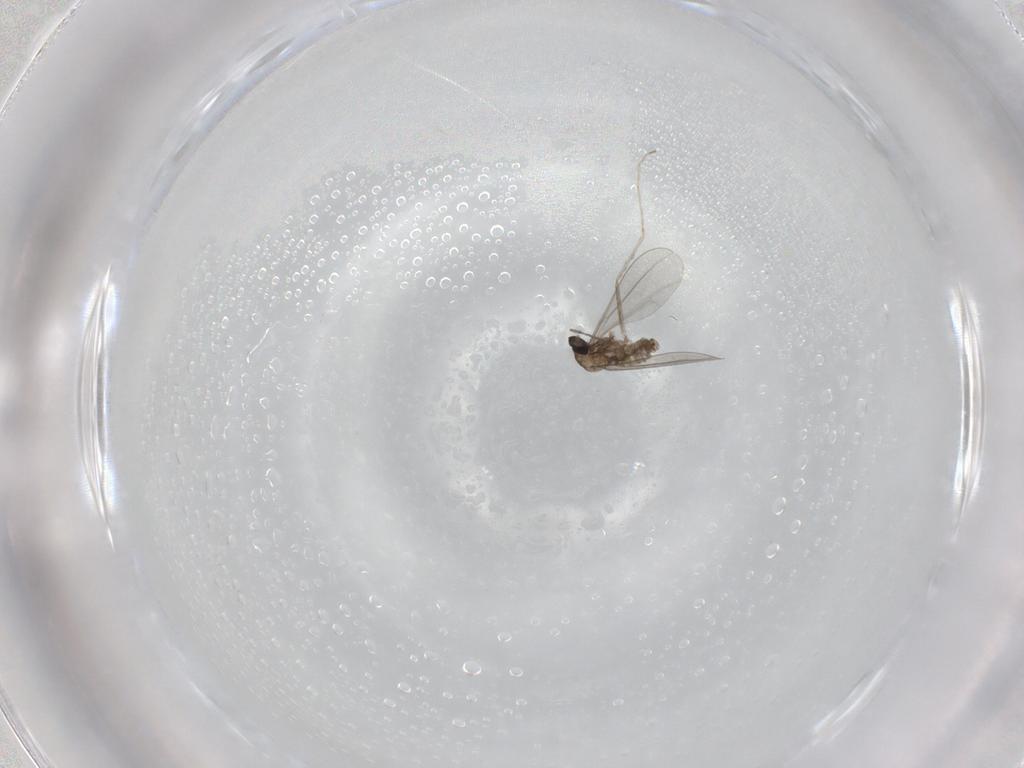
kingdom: Animalia
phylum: Arthropoda
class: Insecta
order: Diptera
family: Cecidomyiidae
